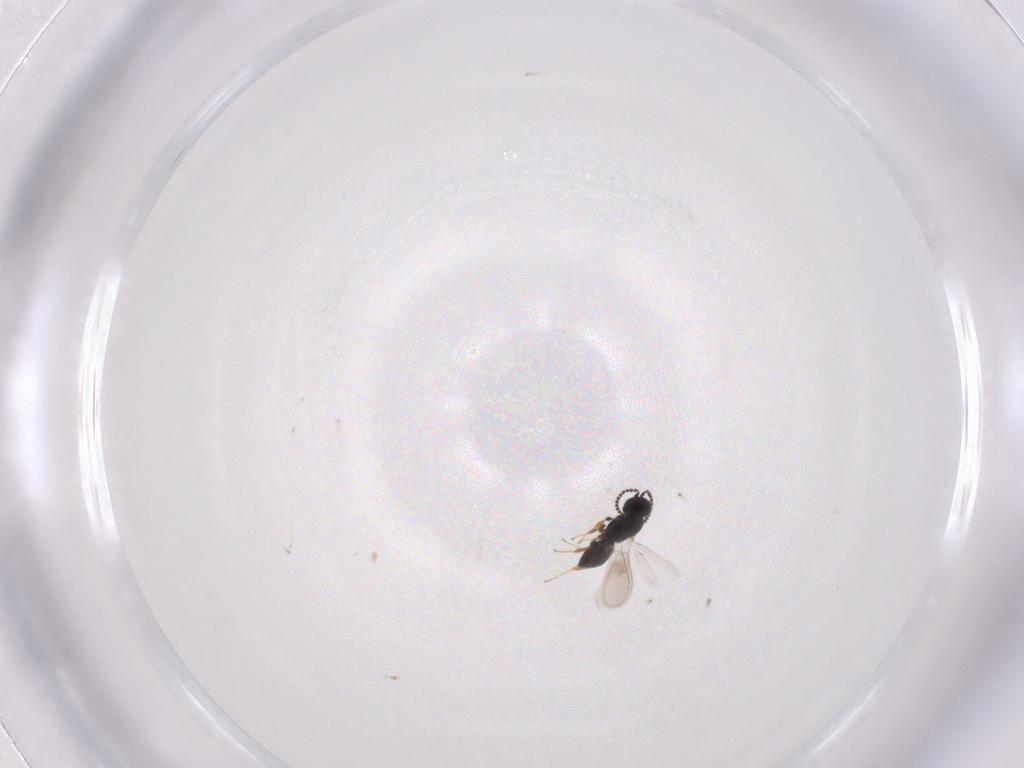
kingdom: Animalia
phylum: Arthropoda
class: Insecta
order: Hymenoptera
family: Scelionidae
